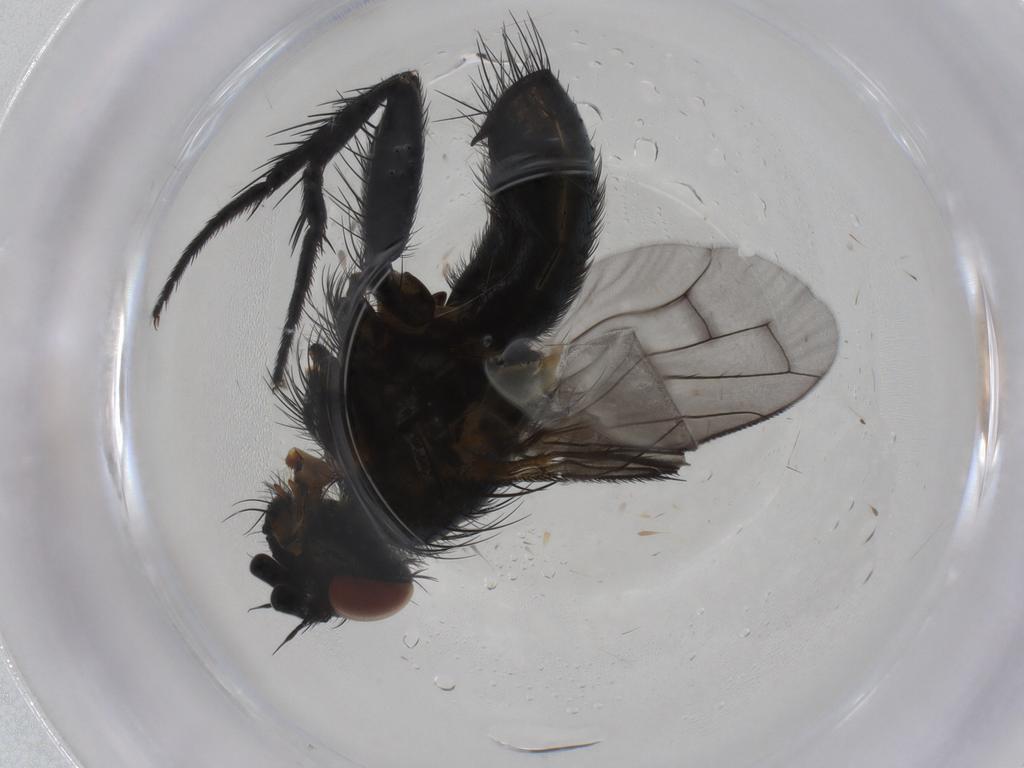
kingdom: Animalia
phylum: Arthropoda
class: Insecta
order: Diptera
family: Tachinidae
